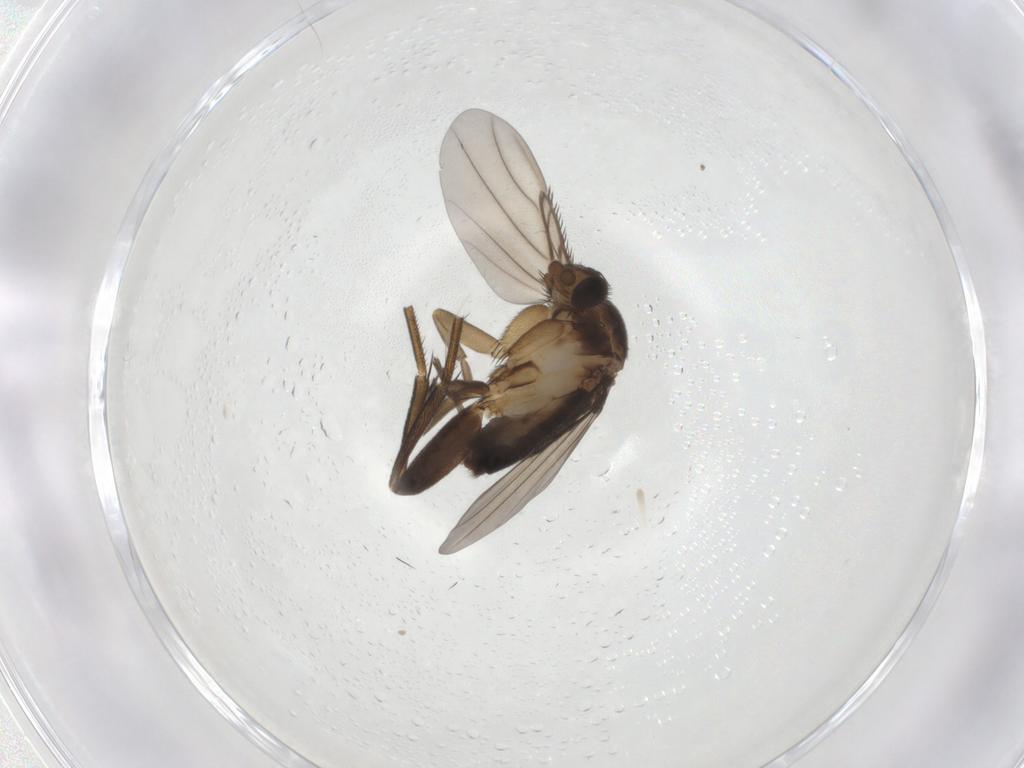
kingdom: Animalia
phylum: Arthropoda
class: Insecta
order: Diptera
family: Phoridae
